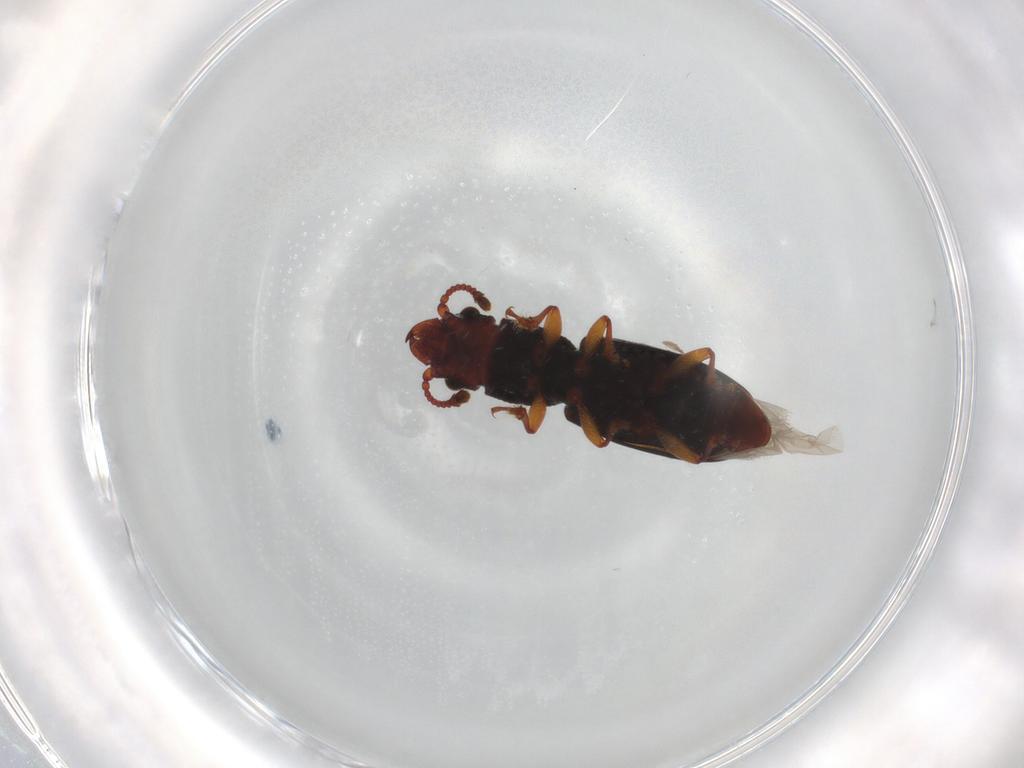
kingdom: Animalia
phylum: Arthropoda
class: Insecta
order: Coleoptera
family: Monotomidae
